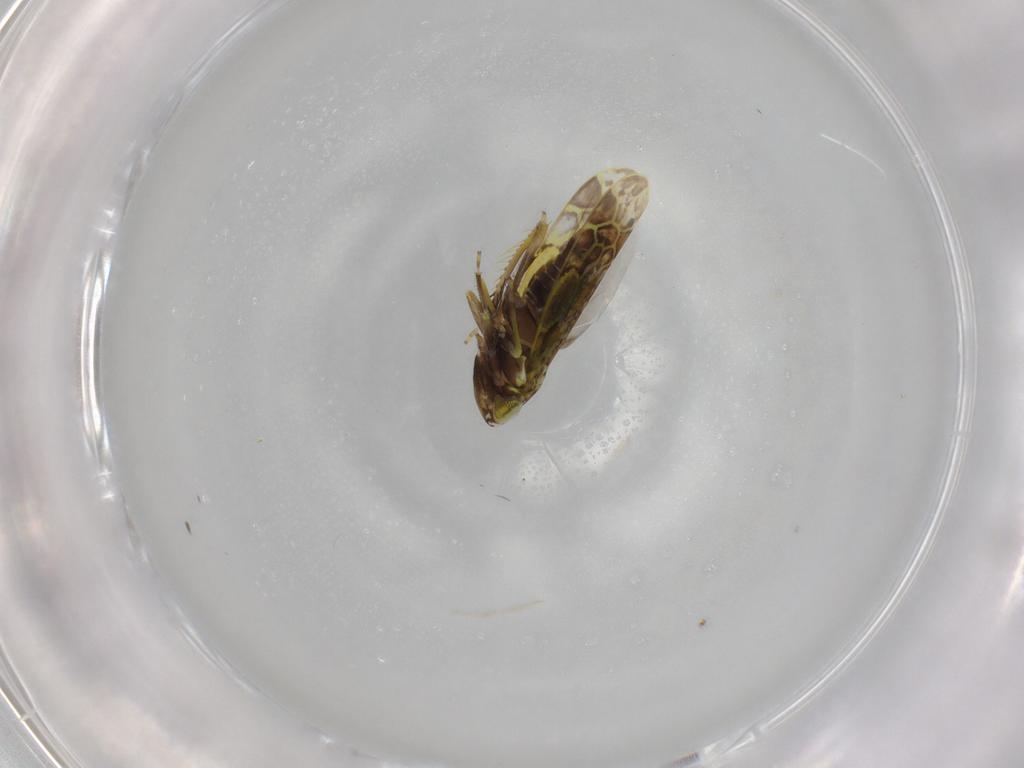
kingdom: Animalia
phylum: Arthropoda
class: Insecta
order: Hemiptera
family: Cicadellidae
